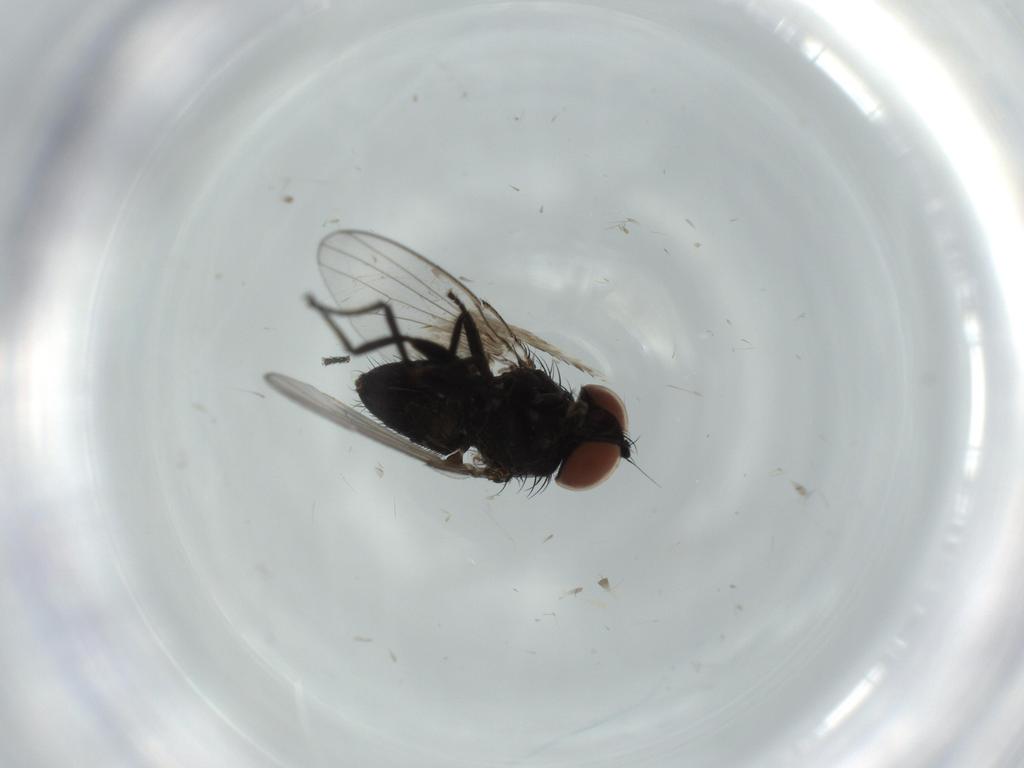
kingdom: Animalia
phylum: Arthropoda
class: Insecta
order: Diptera
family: Milichiidae
